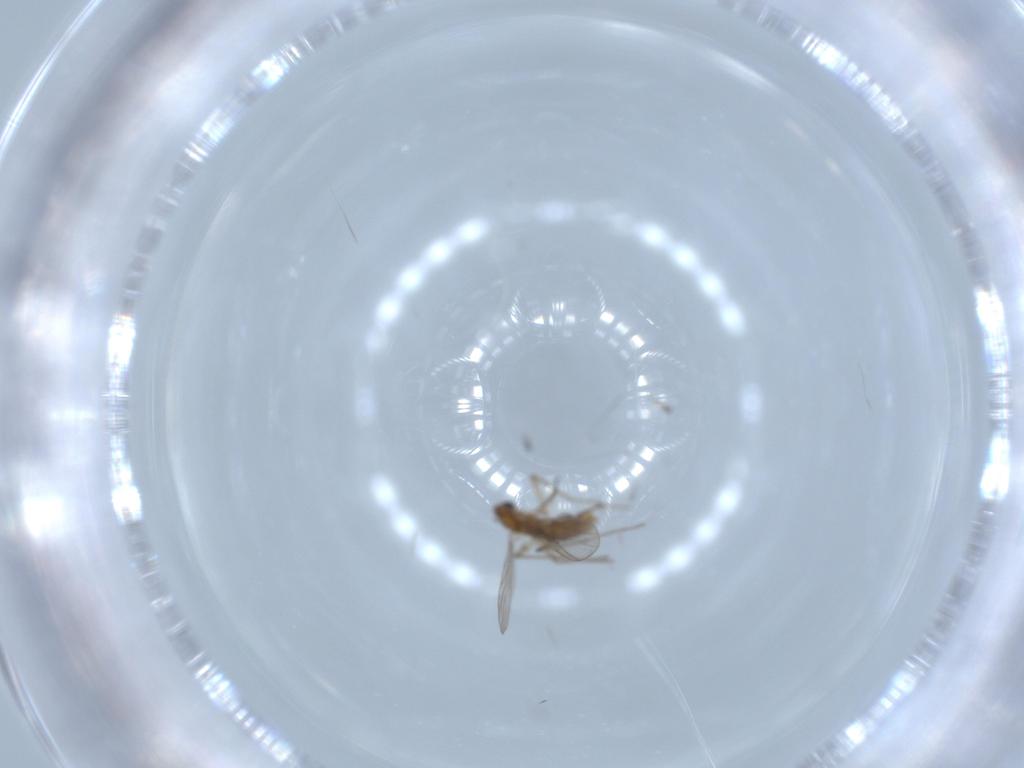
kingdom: Animalia
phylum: Arthropoda
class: Insecta
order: Diptera
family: Chironomidae
